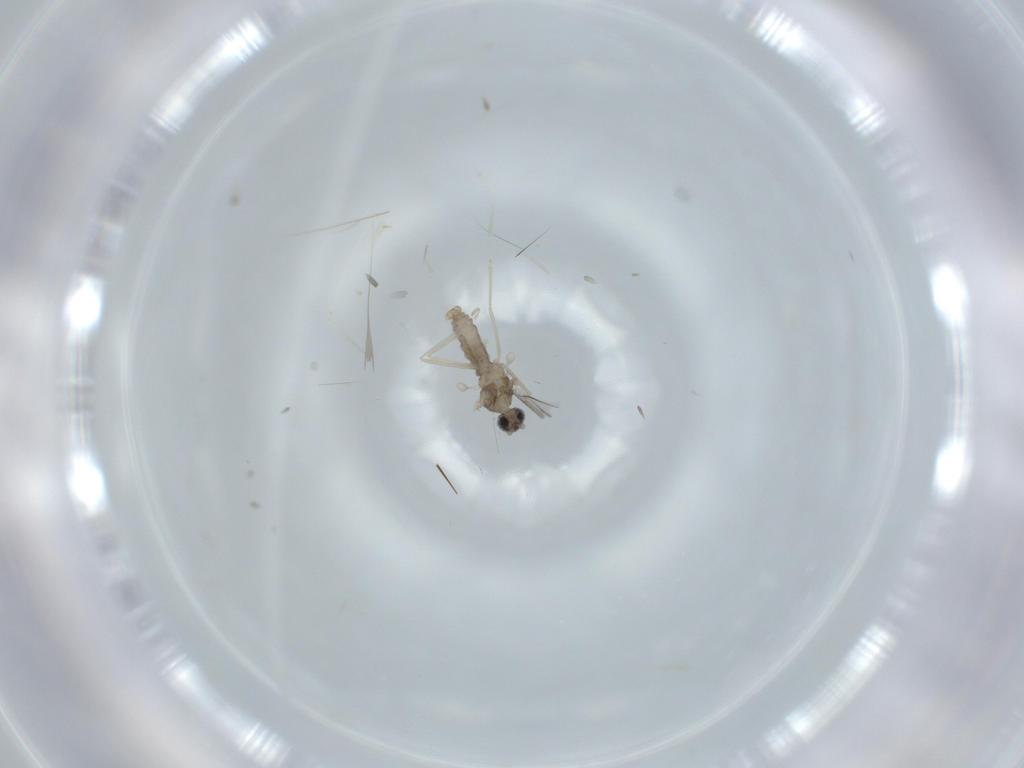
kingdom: Animalia
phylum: Arthropoda
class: Insecta
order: Diptera
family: Cecidomyiidae
